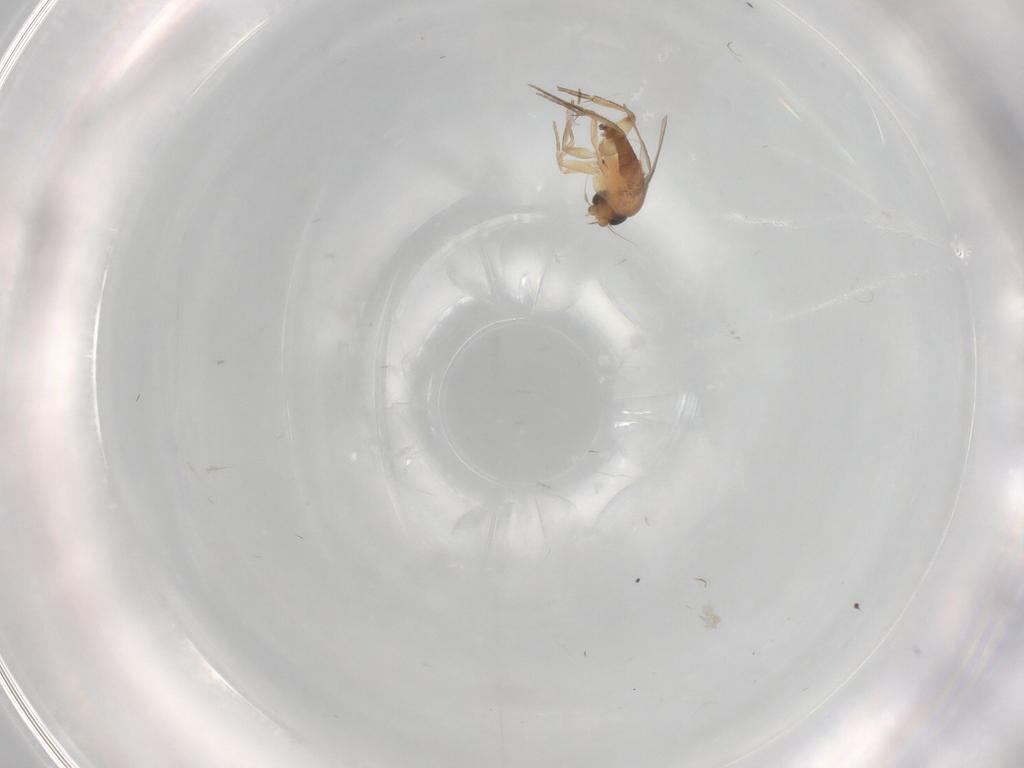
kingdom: Animalia
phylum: Arthropoda
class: Insecta
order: Diptera
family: Phoridae
